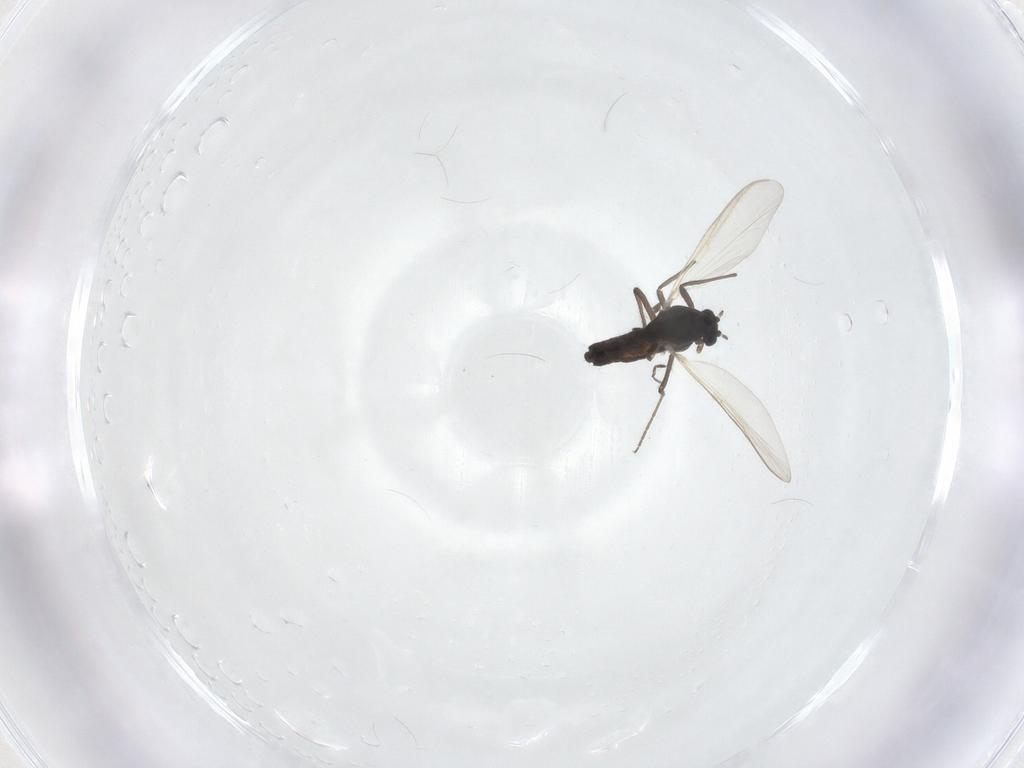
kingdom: Animalia
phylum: Arthropoda
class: Insecta
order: Diptera
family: Chironomidae
